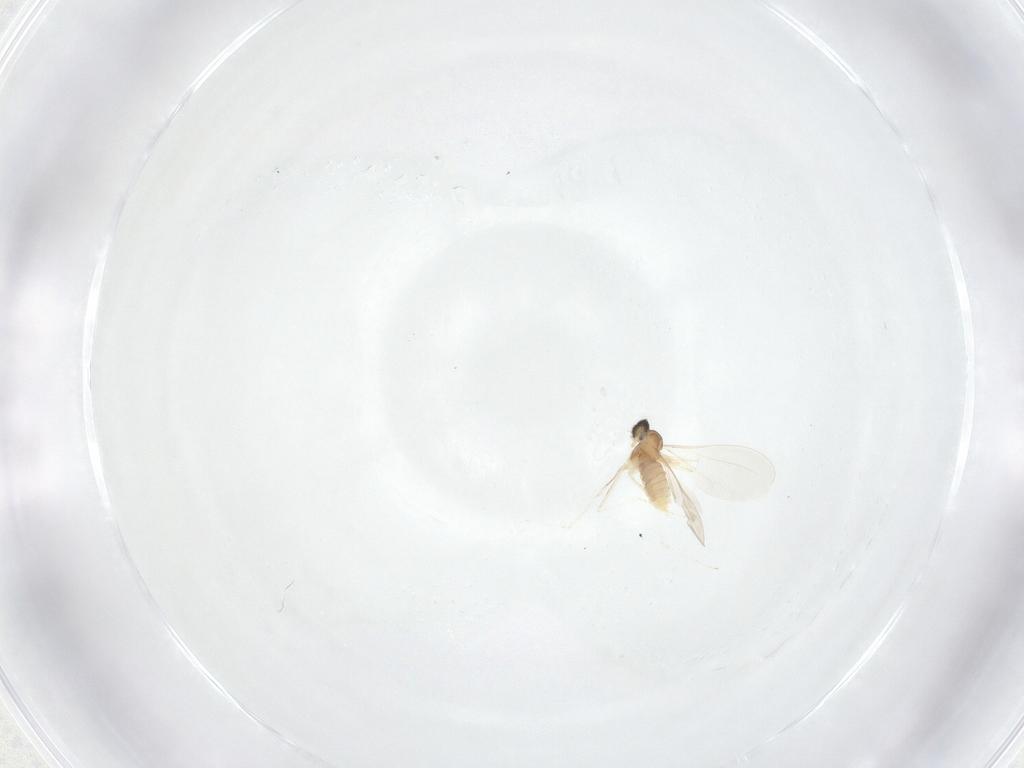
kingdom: Animalia
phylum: Arthropoda
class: Insecta
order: Diptera
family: Cecidomyiidae
